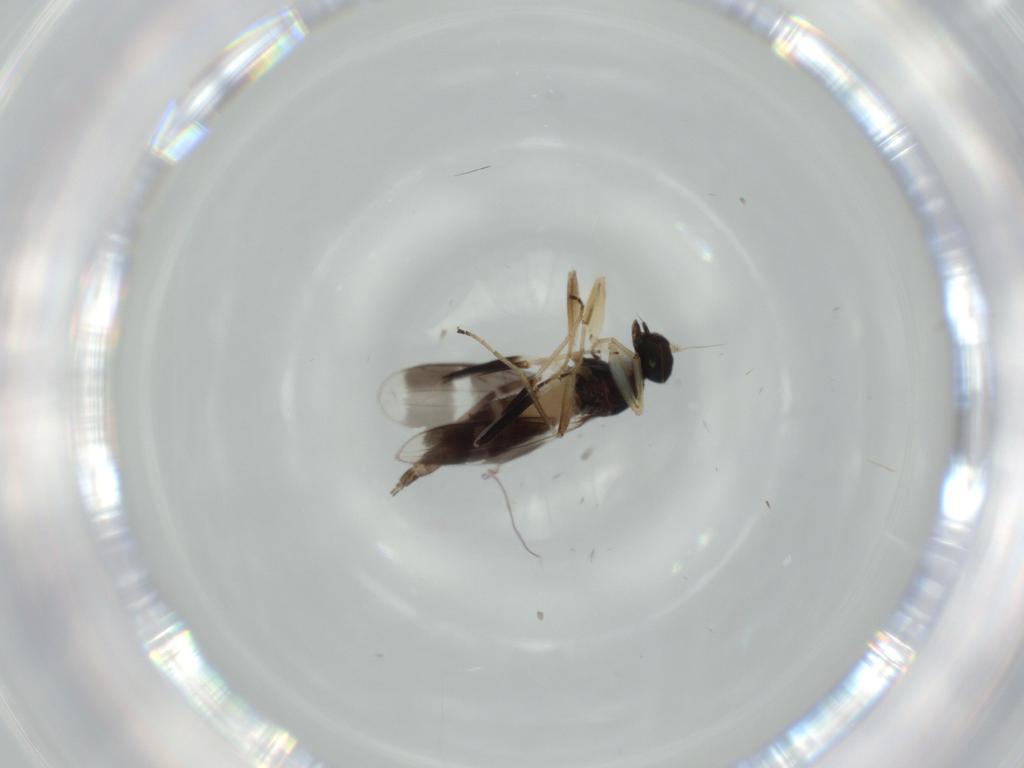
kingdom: Animalia
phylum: Arthropoda
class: Insecta
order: Diptera
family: Hybotidae
